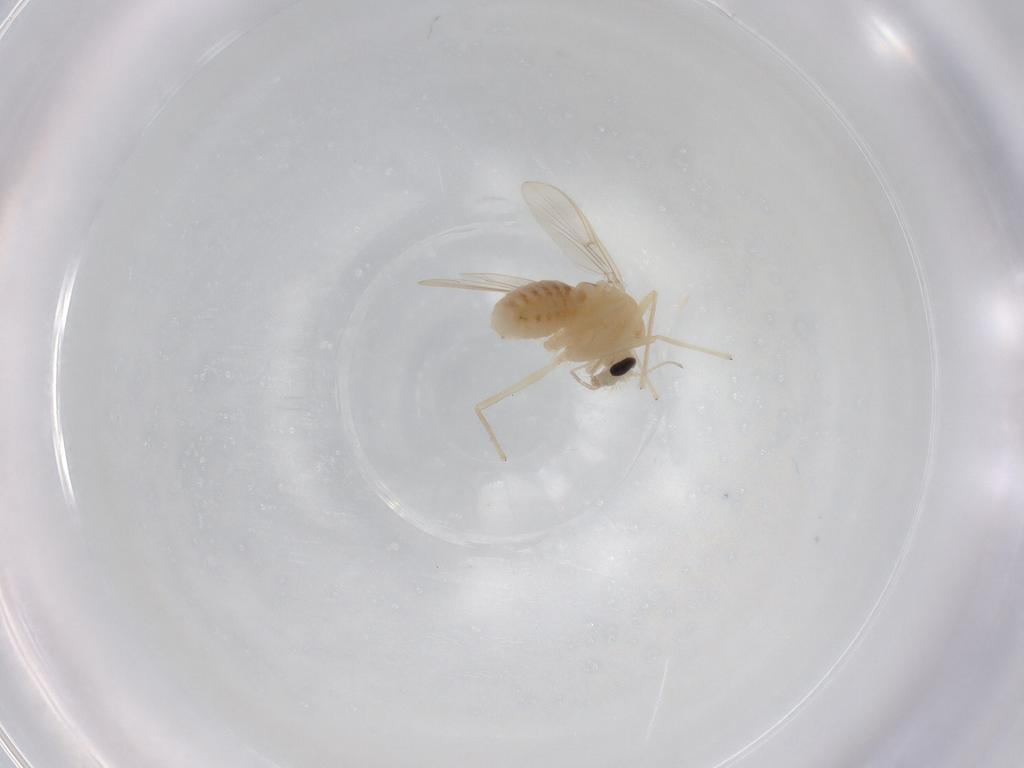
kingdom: Animalia
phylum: Arthropoda
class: Insecta
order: Diptera
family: Chironomidae
